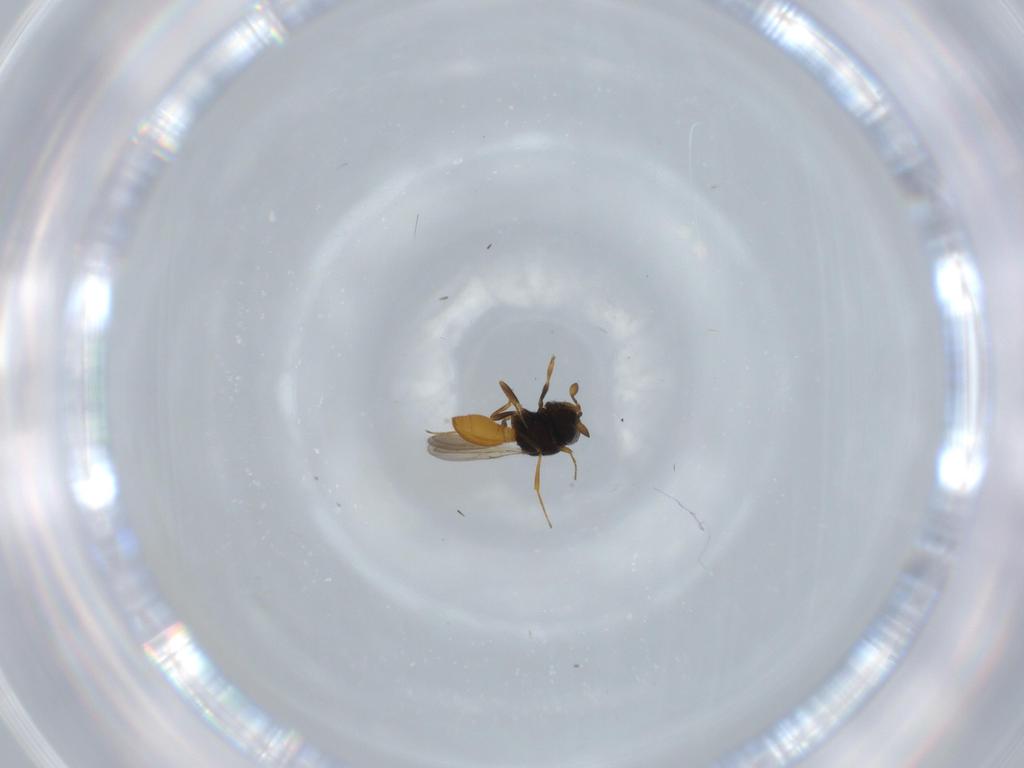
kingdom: Animalia
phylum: Arthropoda
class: Insecta
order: Hymenoptera
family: Scelionidae
